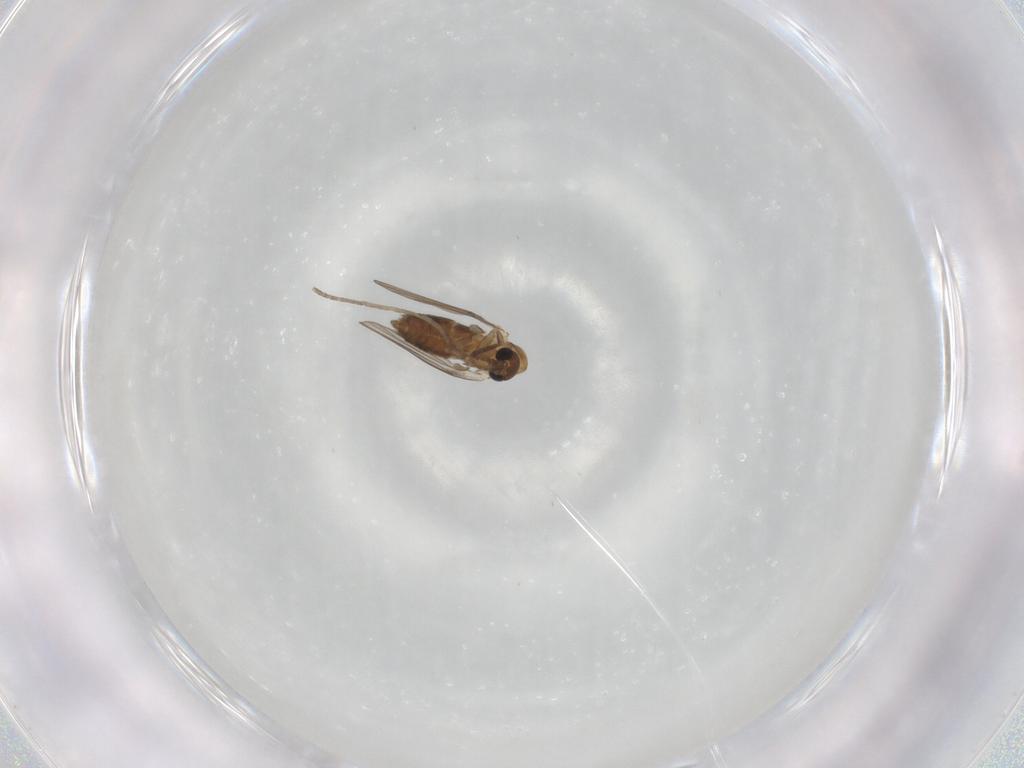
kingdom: Animalia
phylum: Arthropoda
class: Insecta
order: Diptera
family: Psychodidae
